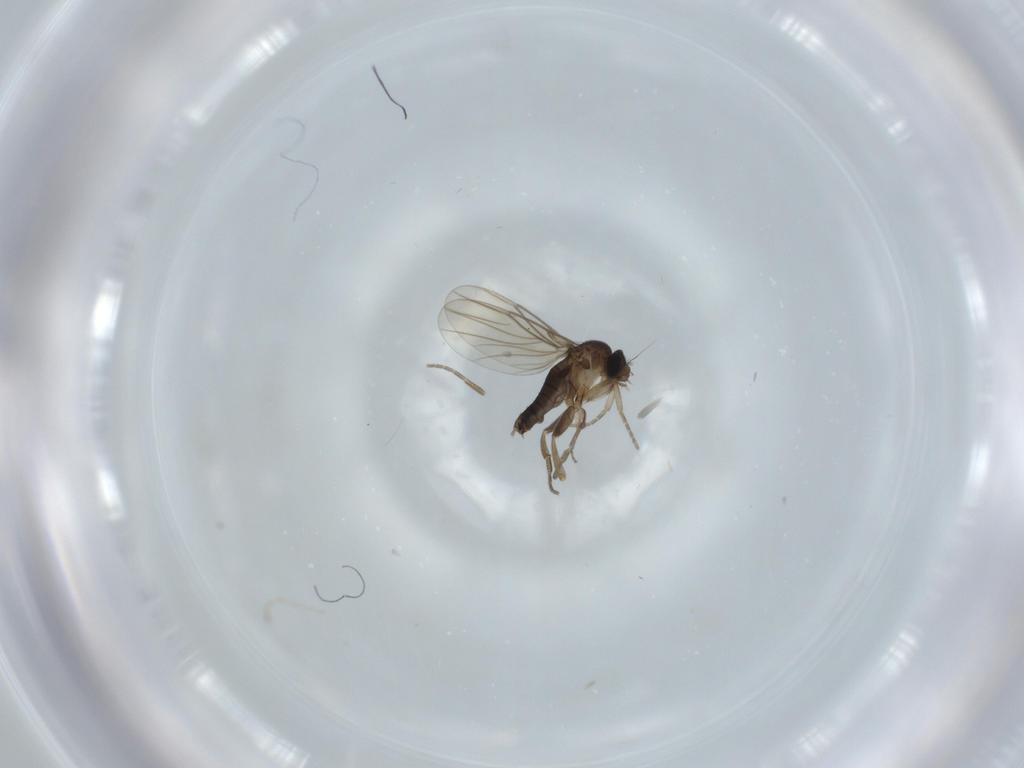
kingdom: Animalia
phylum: Arthropoda
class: Insecta
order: Diptera
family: Cecidomyiidae
